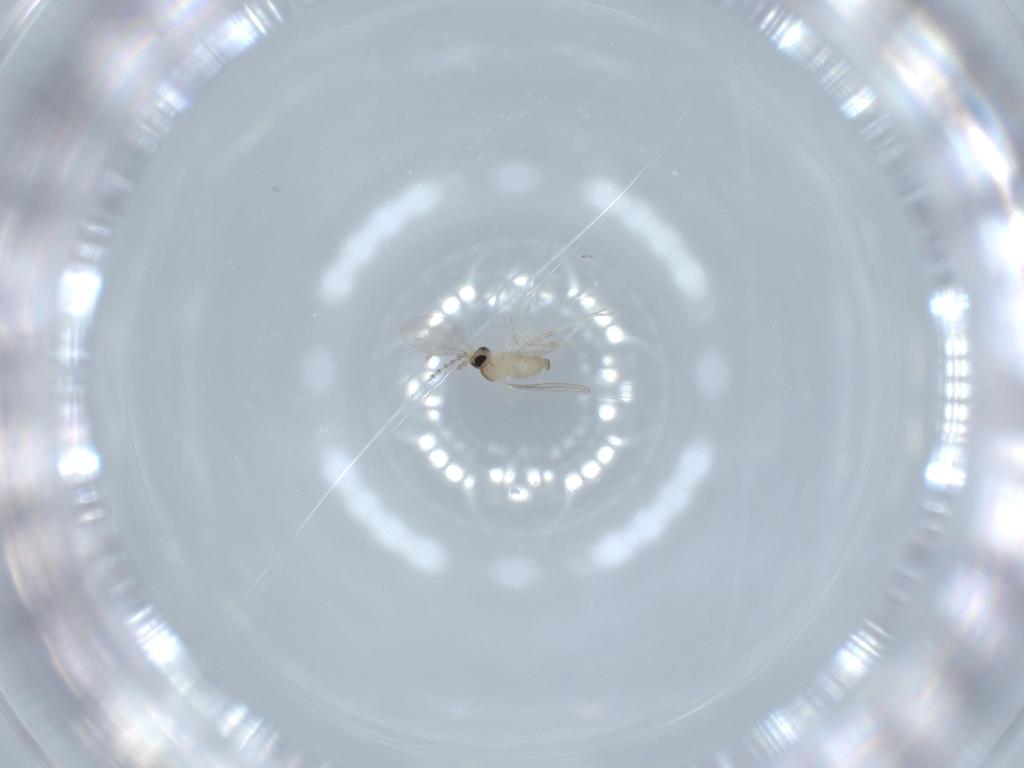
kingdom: Animalia
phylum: Arthropoda
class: Insecta
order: Diptera
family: Cecidomyiidae
